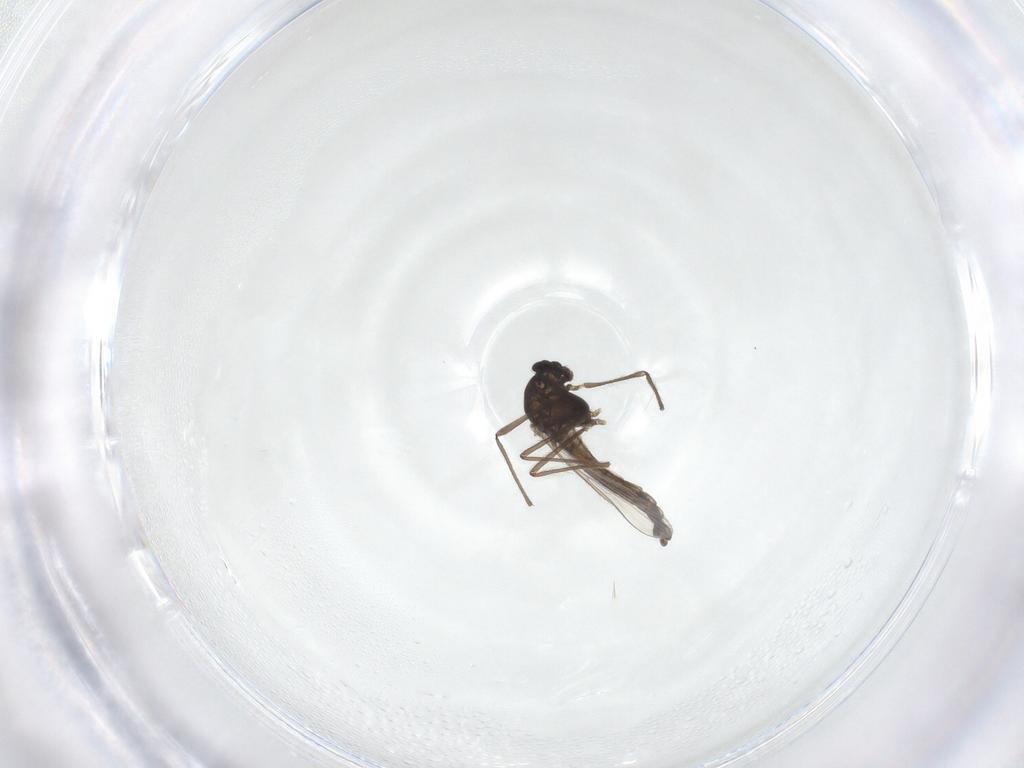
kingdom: Animalia
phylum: Arthropoda
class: Insecta
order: Diptera
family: Chironomidae
